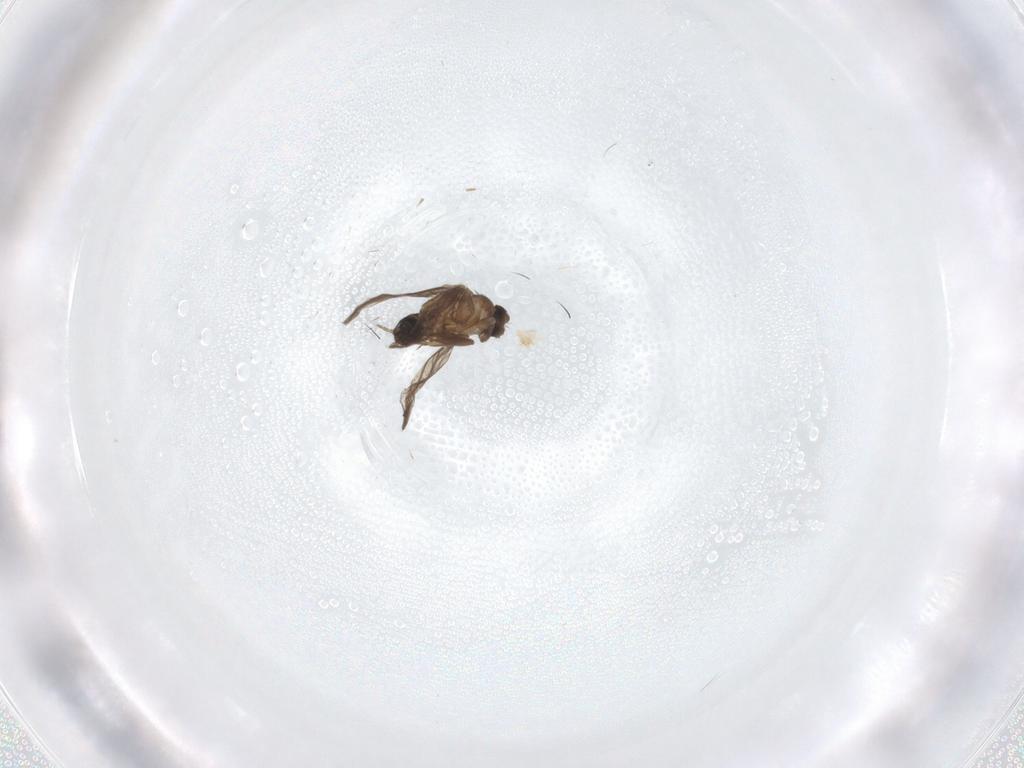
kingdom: Animalia
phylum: Arthropoda
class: Insecta
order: Diptera
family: Cecidomyiidae
